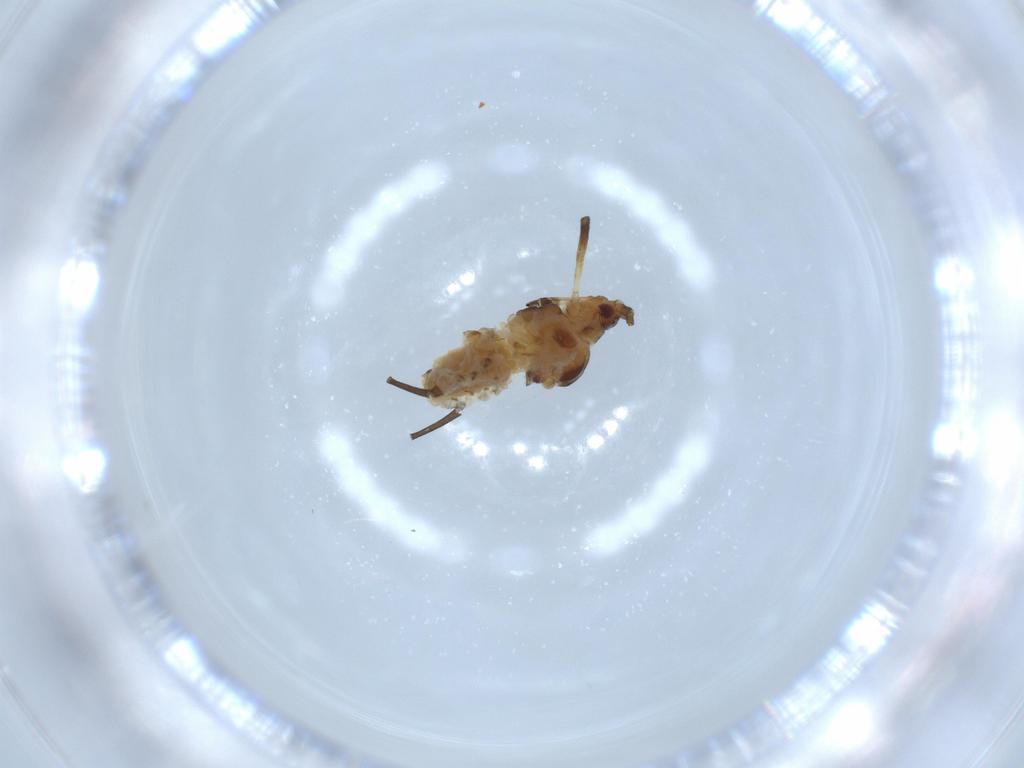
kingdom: Animalia
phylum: Arthropoda
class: Insecta
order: Hemiptera
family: Aphididae
